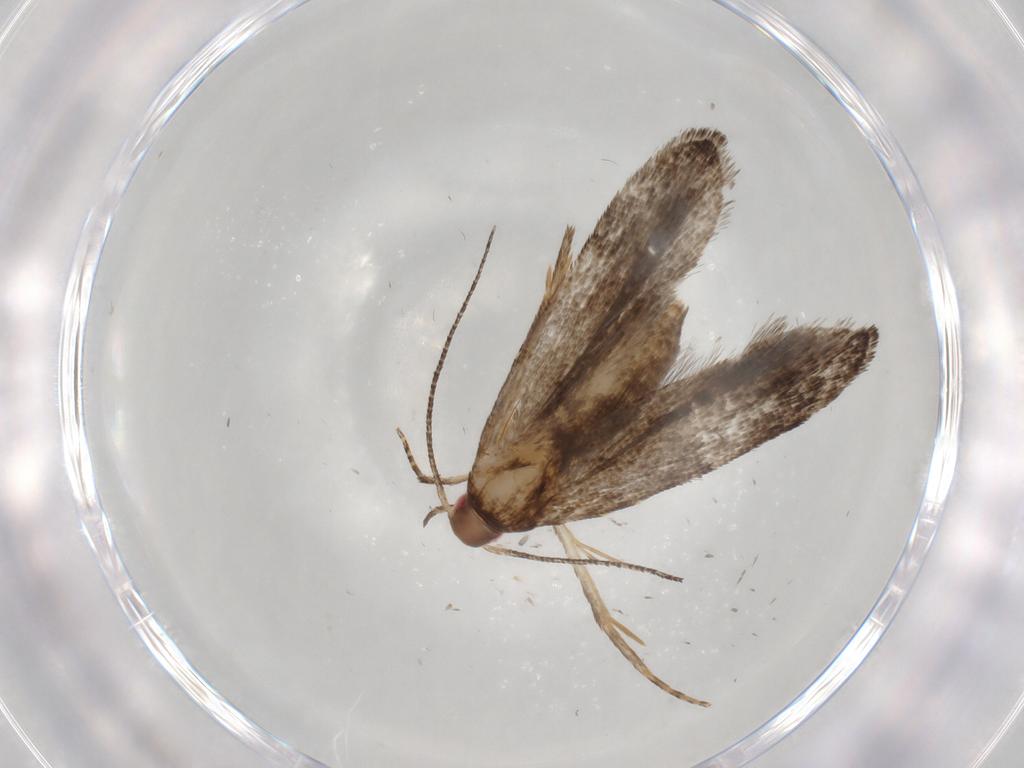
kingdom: Animalia
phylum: Arthropoda
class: Insecta
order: Lepidoptera
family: Gelechiidae
